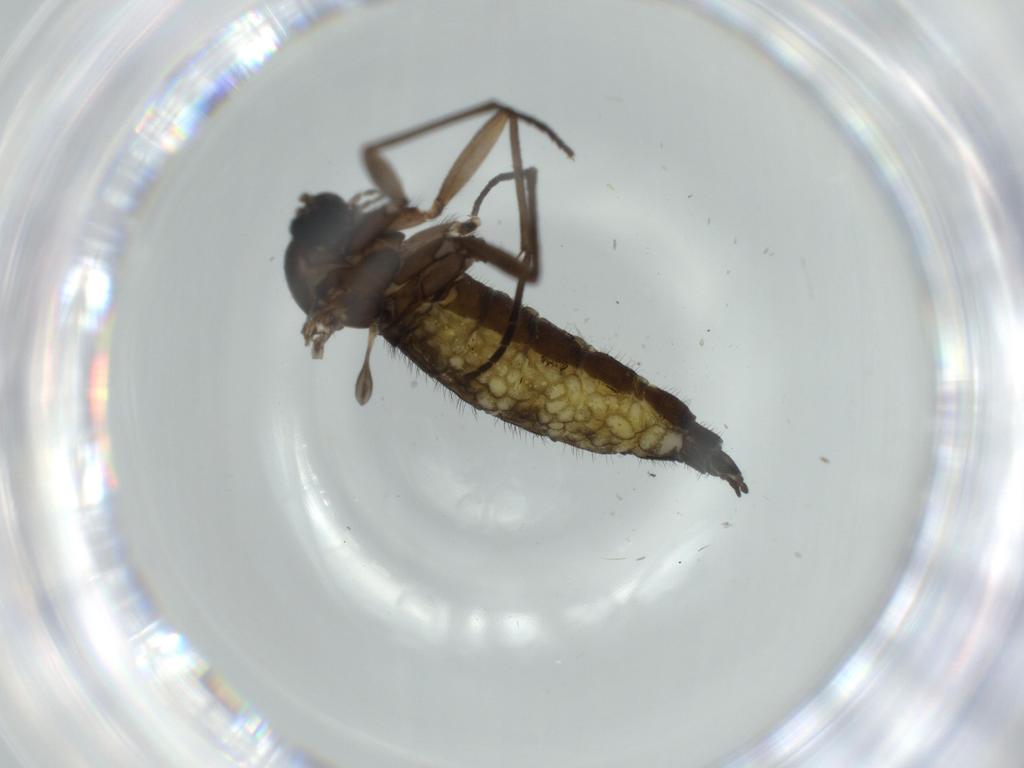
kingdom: Animalia
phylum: Arthropoda
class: Insecta
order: Diptera
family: Sciaridae
